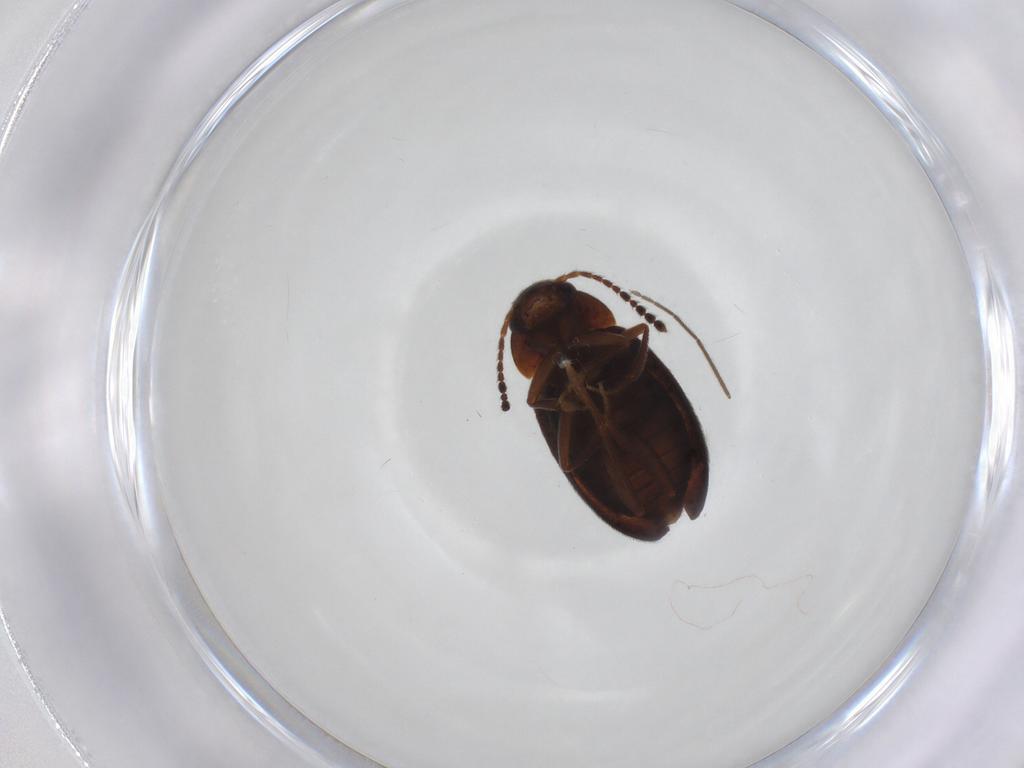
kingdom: Animalia
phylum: Arthropoda
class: Insecta
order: Coleoptera
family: Leiodidae
